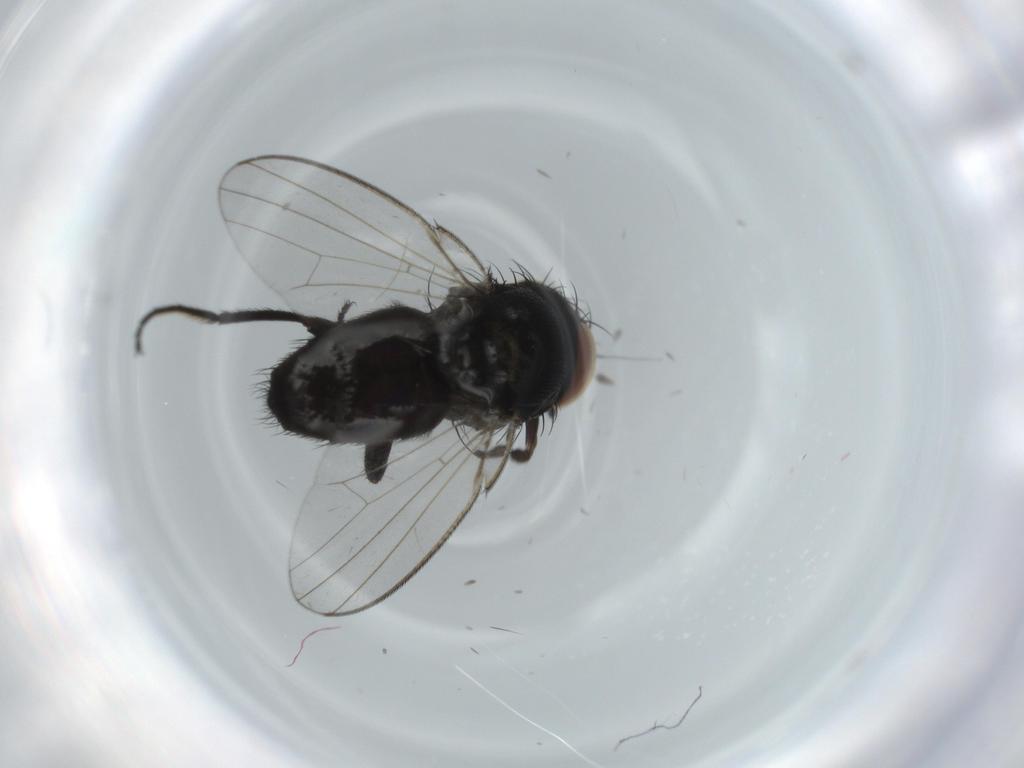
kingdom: Animalia
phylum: Arthropoda
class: Insecta
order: Diptera
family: Milichiidae
